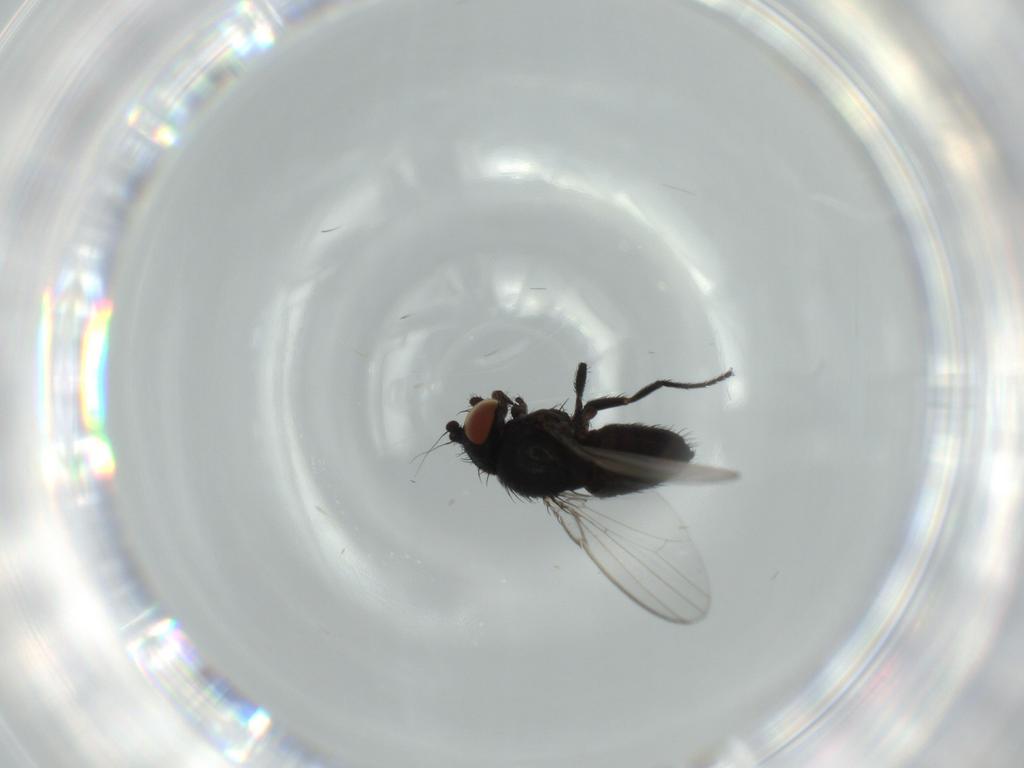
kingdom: Animalia
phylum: Arthropoda
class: Insecta
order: Diptera
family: Milichiidae
